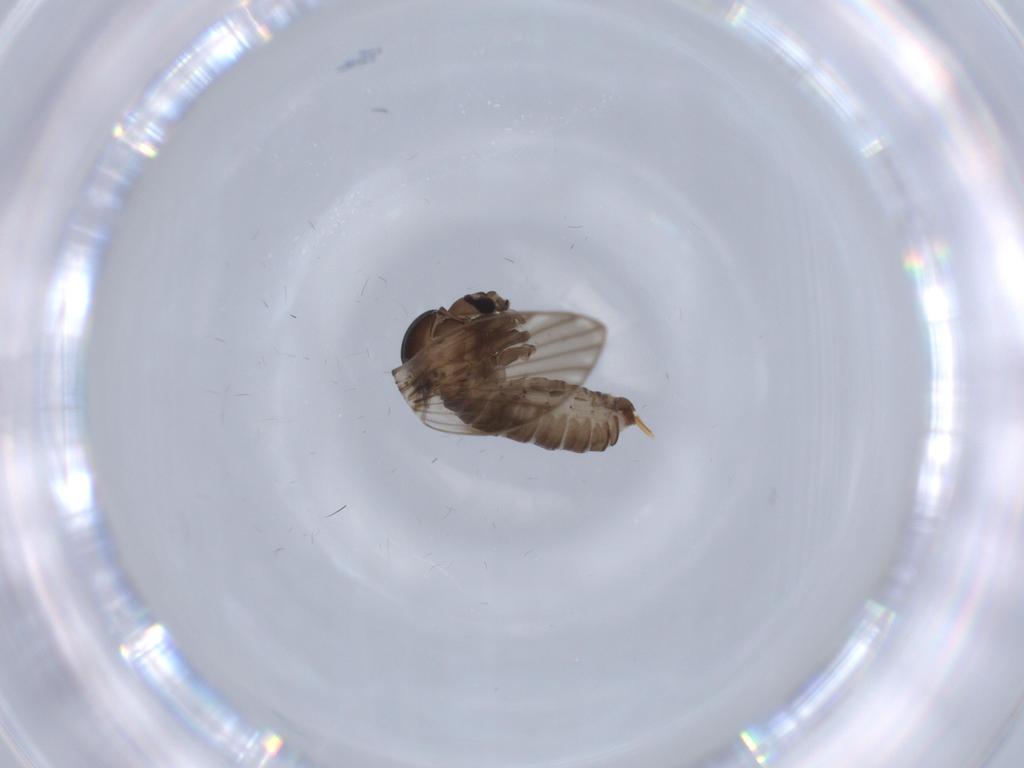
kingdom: Animalia
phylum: Arthropoda
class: Insecta
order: Diptera
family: Psychodidae
